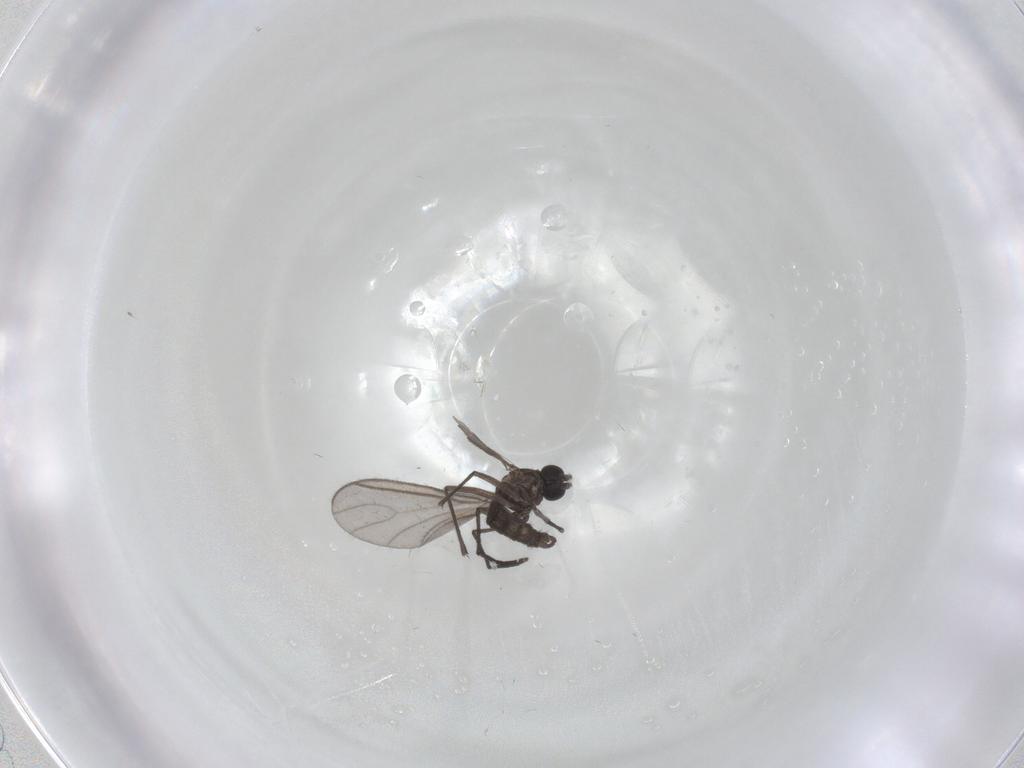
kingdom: Animalia
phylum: Arthropoda
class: Insecta
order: Diptera
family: Sciaridae
